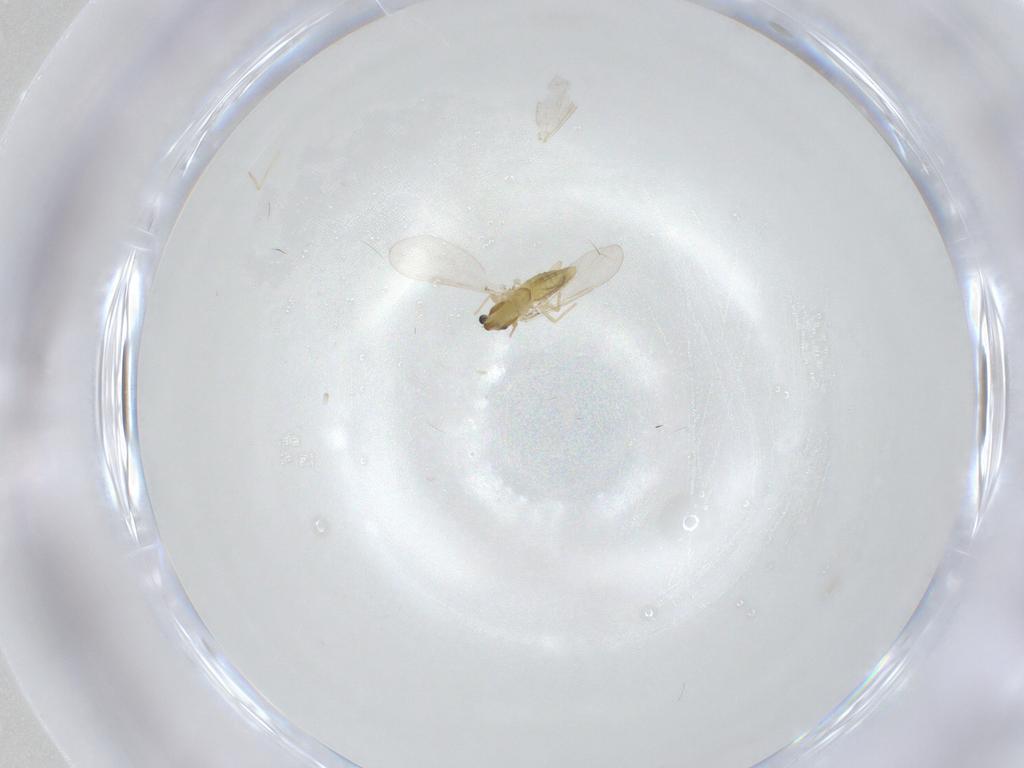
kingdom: Animalia
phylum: Arthropoda
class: Insecta
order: Diptera
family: Chironomidae
